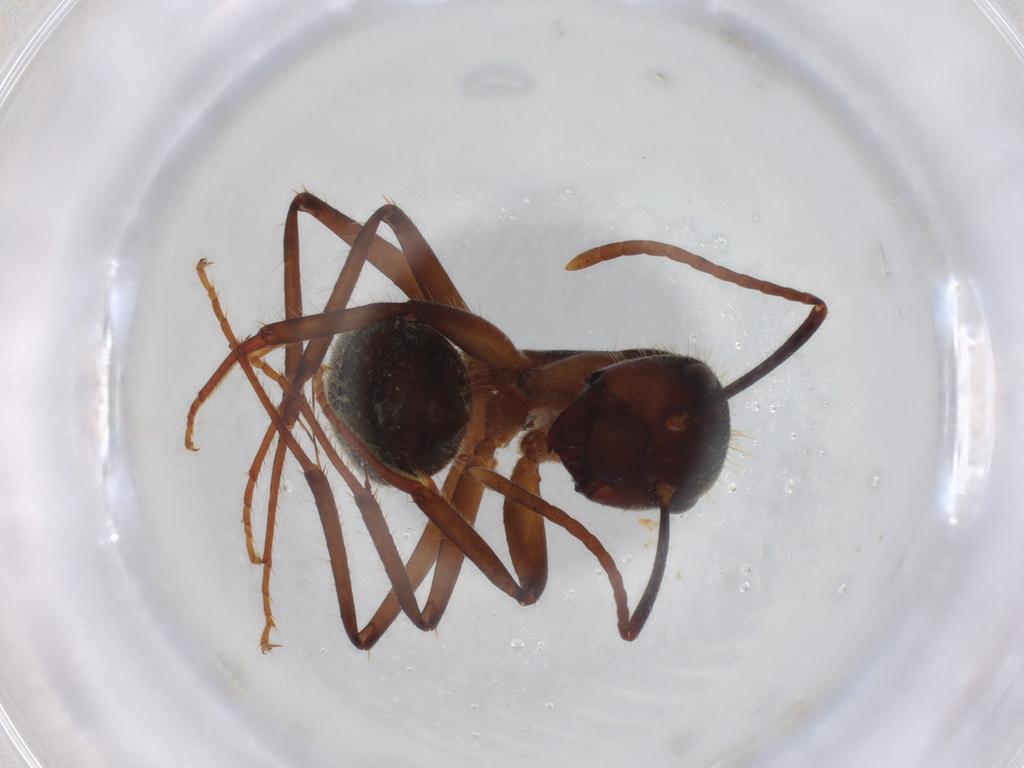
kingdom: Animalia
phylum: Arthropoda
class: Insecta
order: Hymenoptera
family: Formicidae
